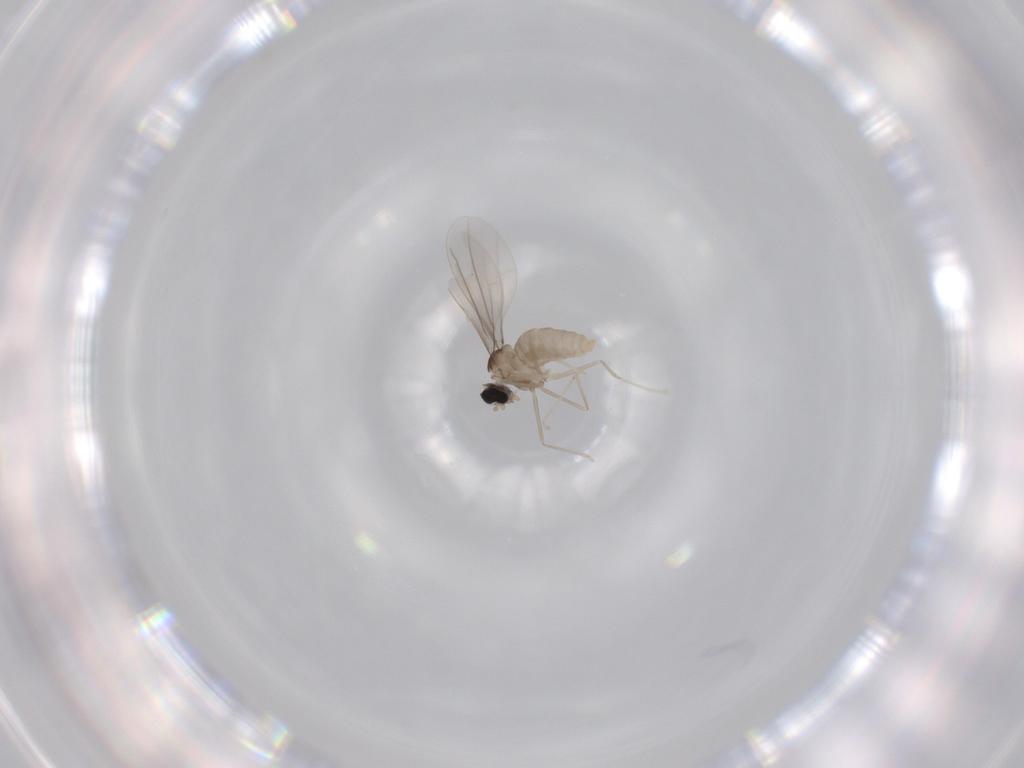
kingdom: Animalia
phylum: Arthropoda
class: Insecta
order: Diptera
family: Cecidomyiidae
